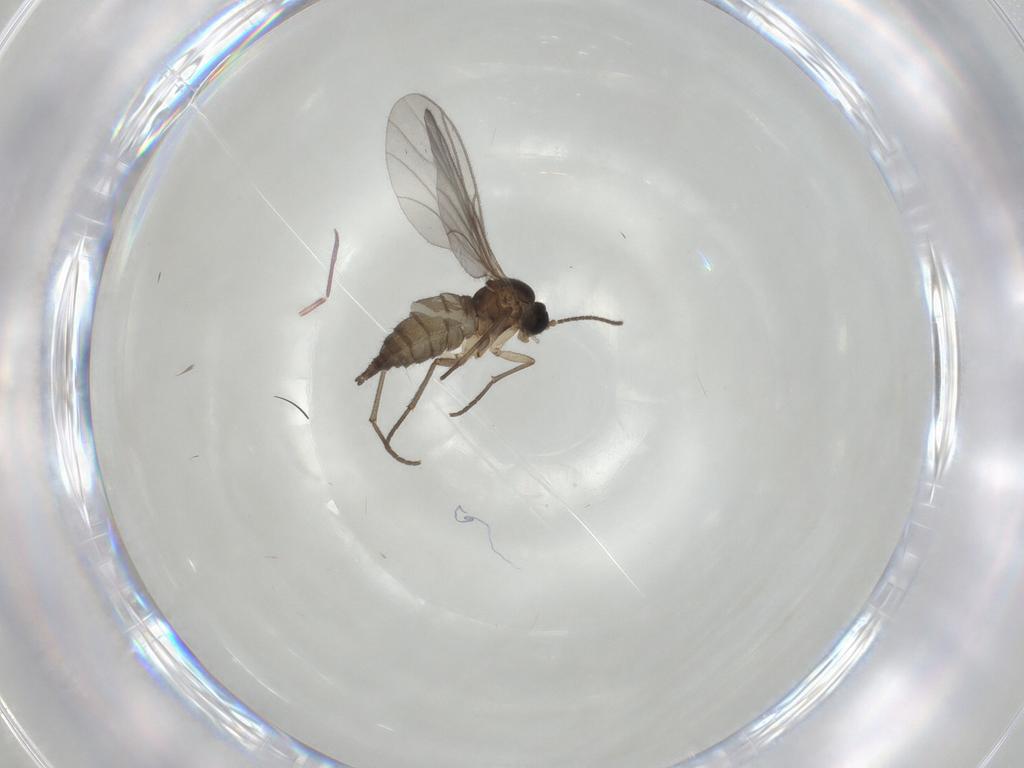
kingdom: Animalia
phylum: Arthropoda
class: Insecta
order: Diptera
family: Sciaridae
